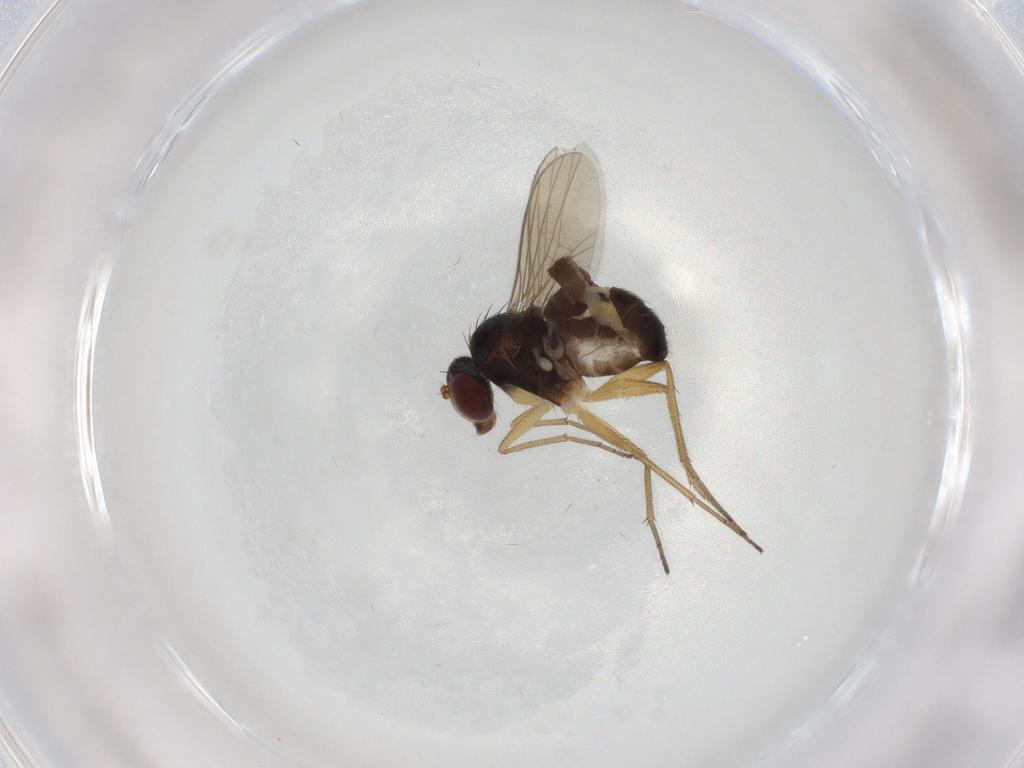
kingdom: Animalia
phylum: Arthropoda
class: Insecta
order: Diptera
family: Dolichopodidae
